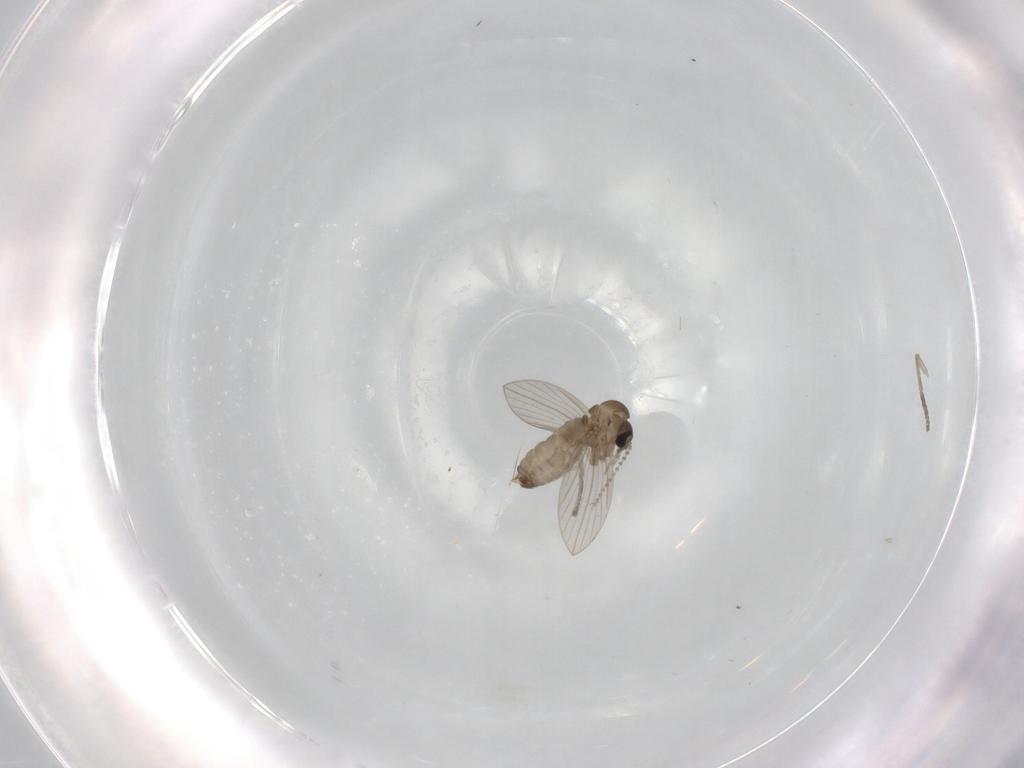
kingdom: Animalia
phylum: Arthropoda
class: Insecta
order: Diptera
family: Psychodidae
